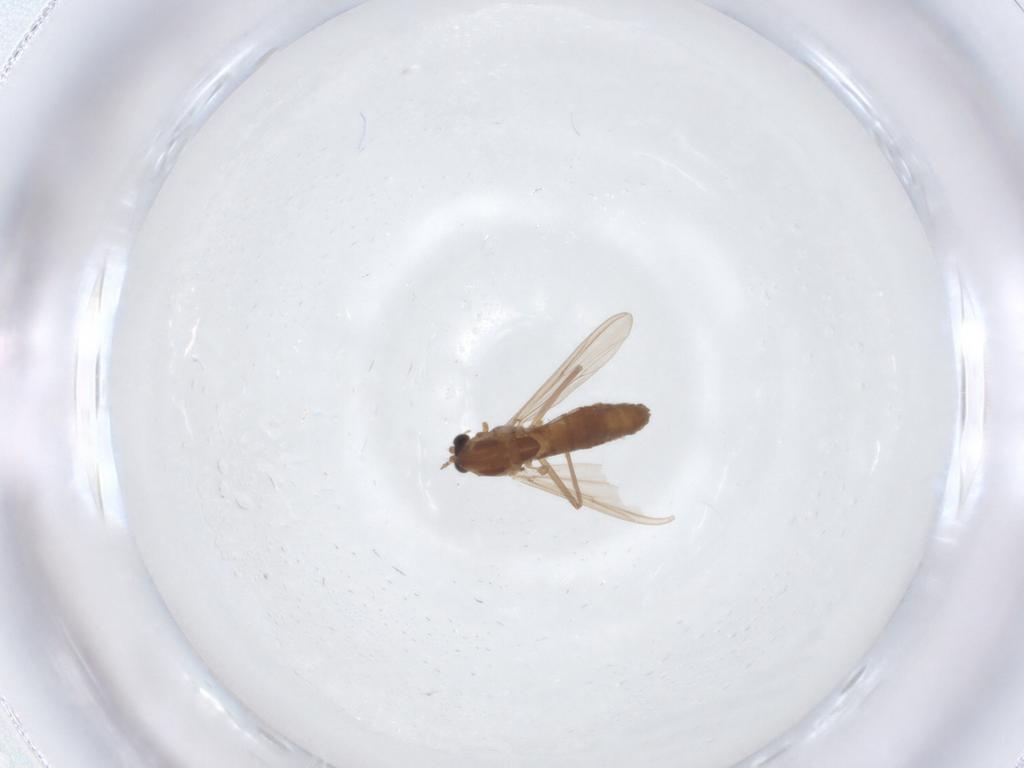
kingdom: Animalia
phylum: Arthropoda
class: Insecta
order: Diptera
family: Chironomidae
